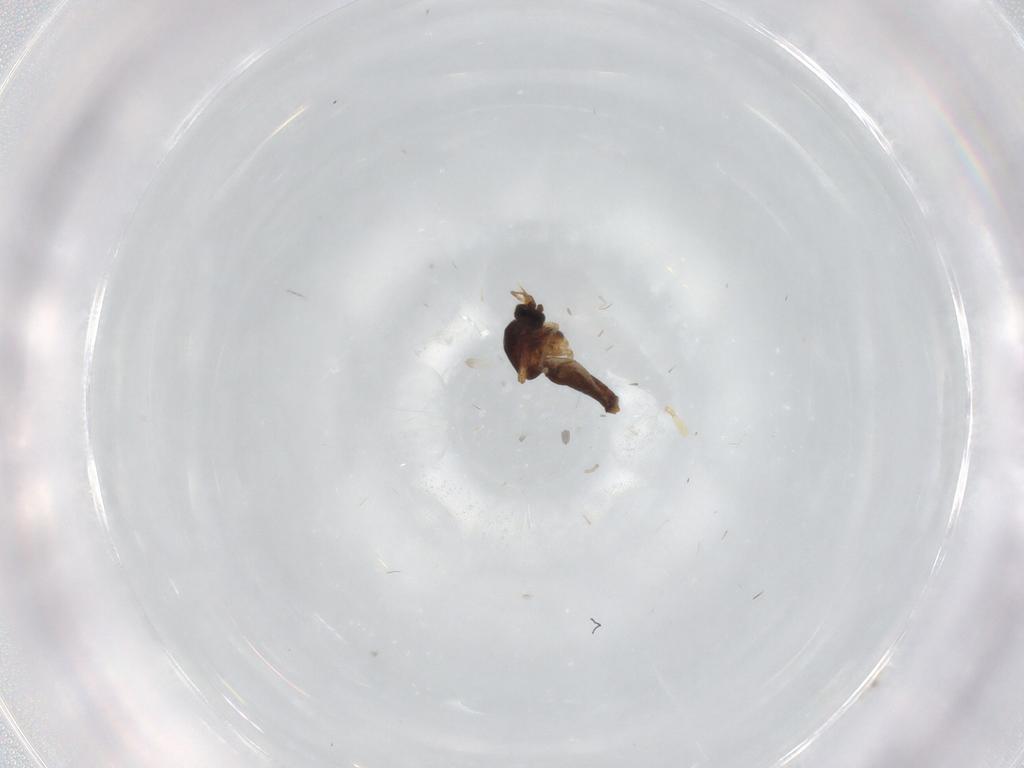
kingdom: Animalia
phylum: Arthropoda
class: Insecta
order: Diptera
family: Ceratopogonidae
